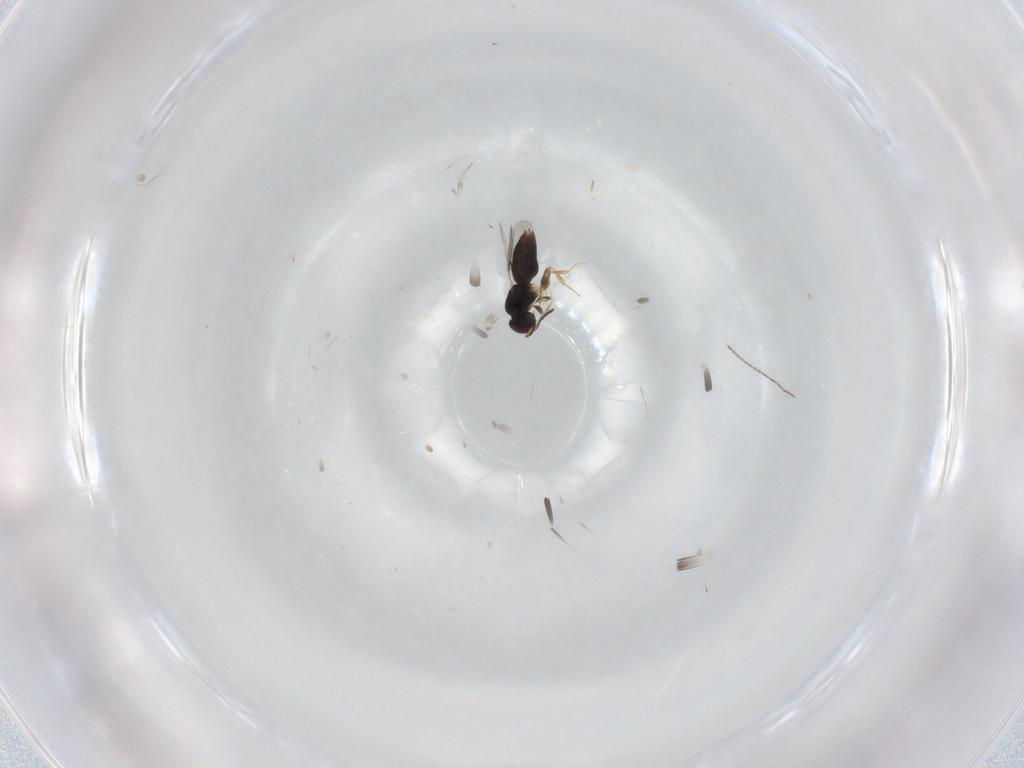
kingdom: Animalia
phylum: Arthropoda
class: Insecta
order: Hymenoptera
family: Ceraphronidae
